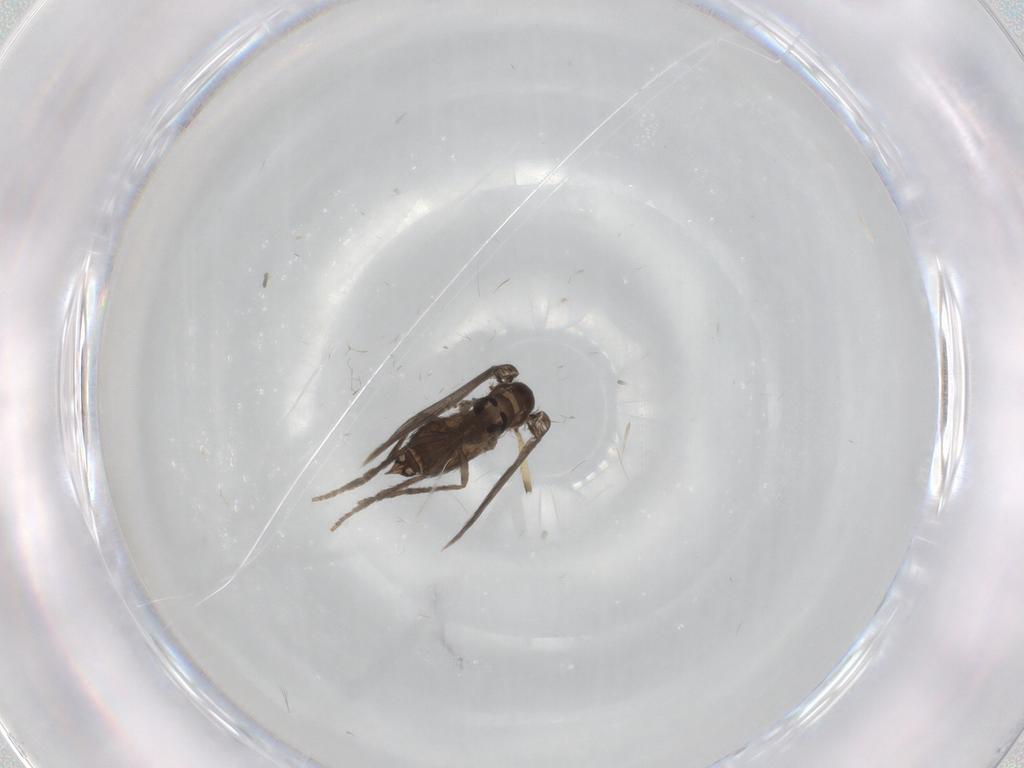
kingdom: Animalia
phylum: Arthropoda
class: Insecta
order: Diptera
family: Psychodidae
